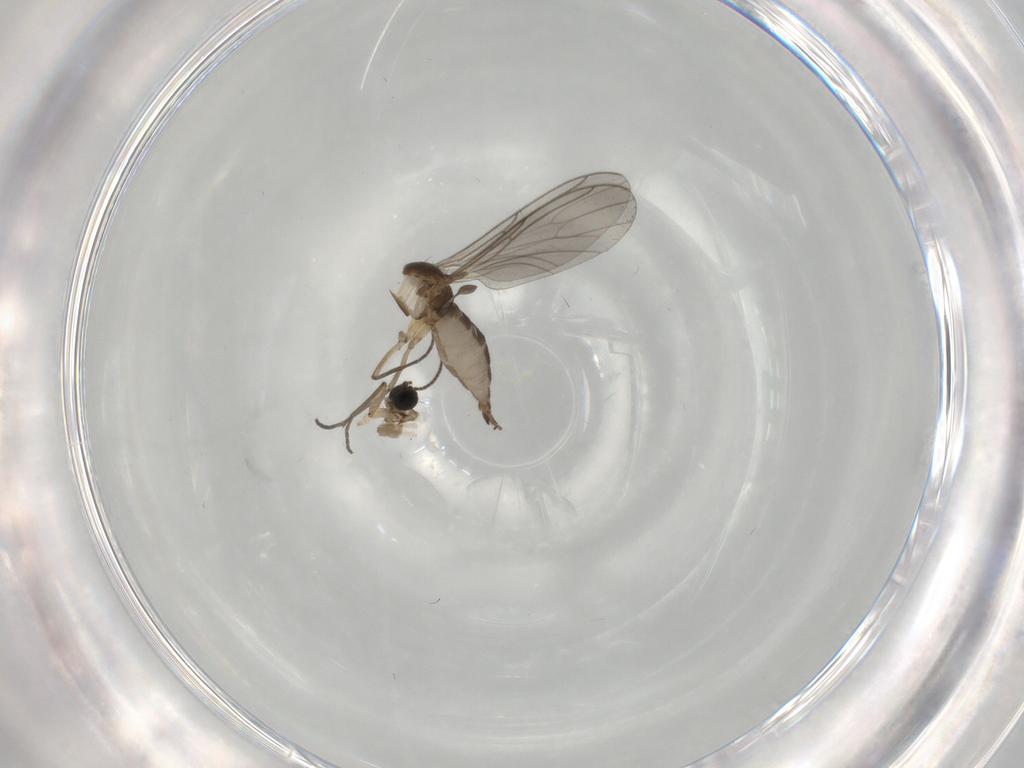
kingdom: Animalia
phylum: Arthropoda
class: Insecta
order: Diptera
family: Sciaridae
